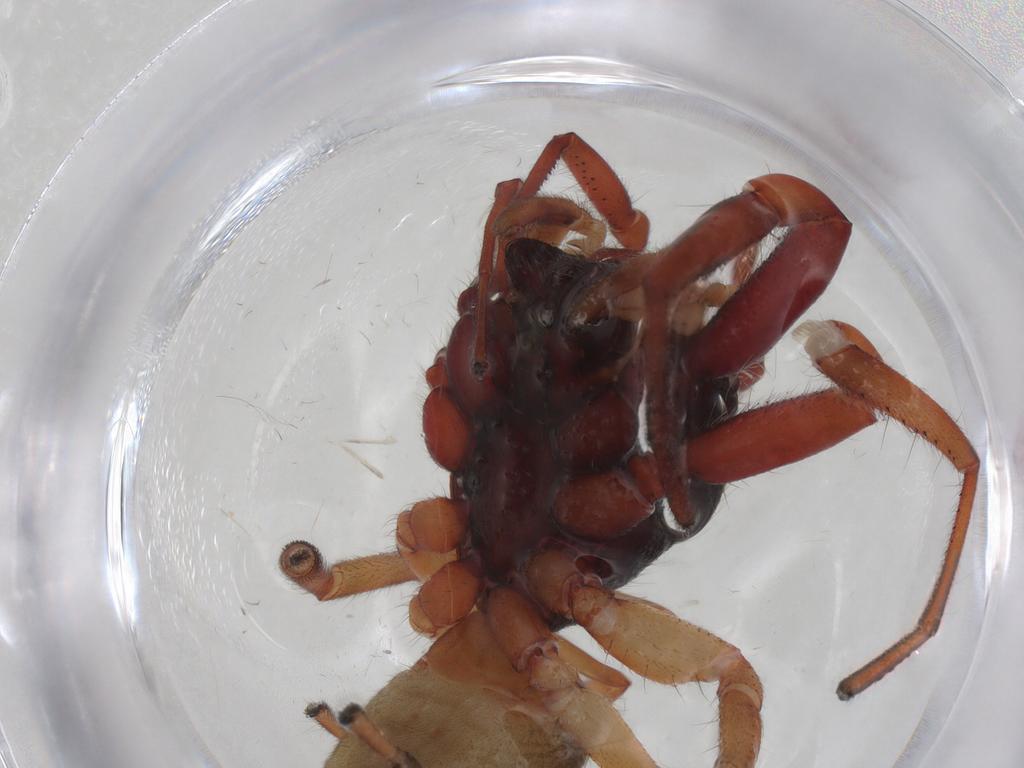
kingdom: Animalia
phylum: Arthropoda
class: Arachnida
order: Araneae
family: Trachelidae
